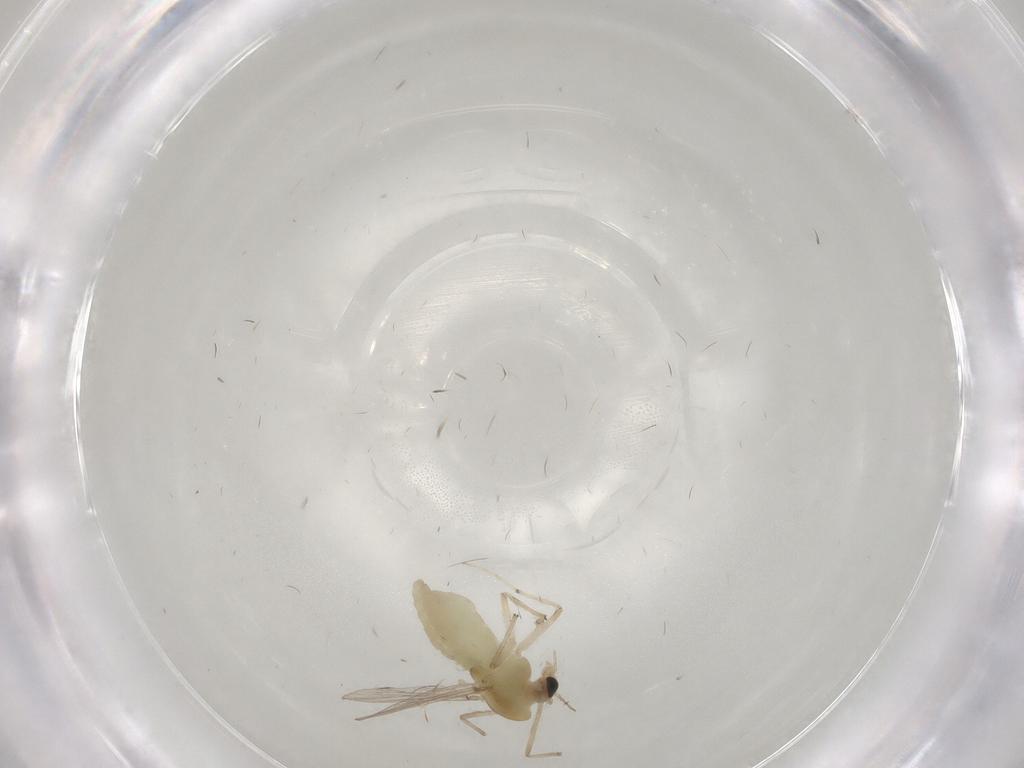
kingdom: Animalia
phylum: Arthropoda
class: Insecta
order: Diptera
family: Chironomidae
